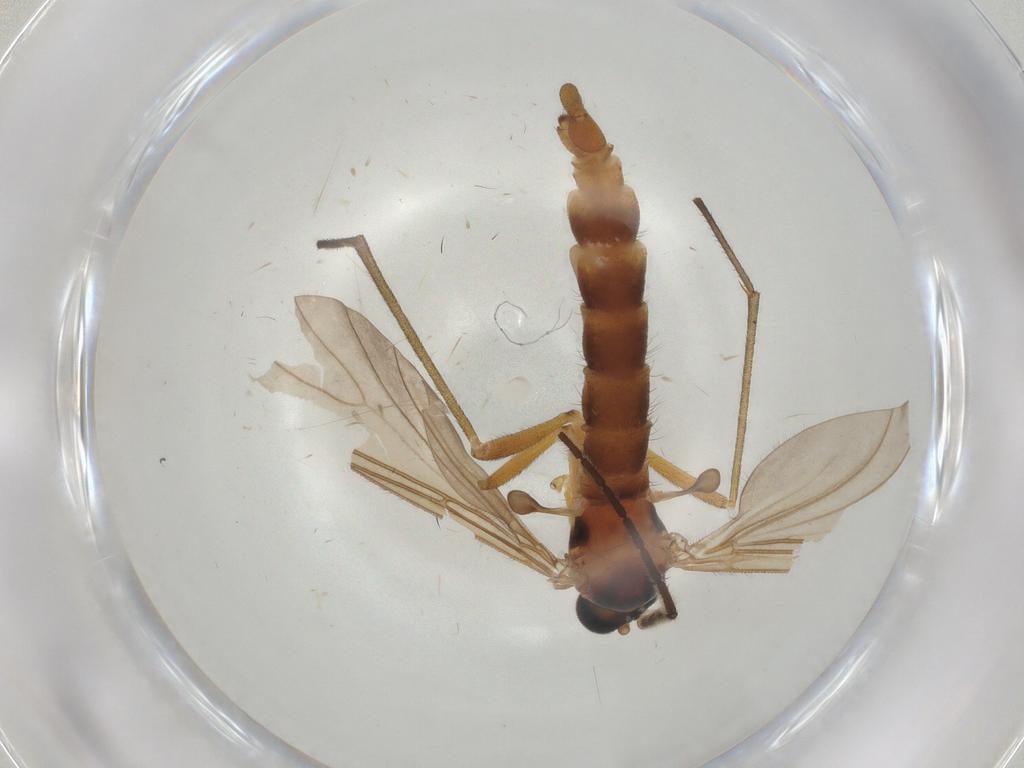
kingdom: Animalia
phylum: Arthropoda
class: Insecta
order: Diptera
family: Sciaridae
